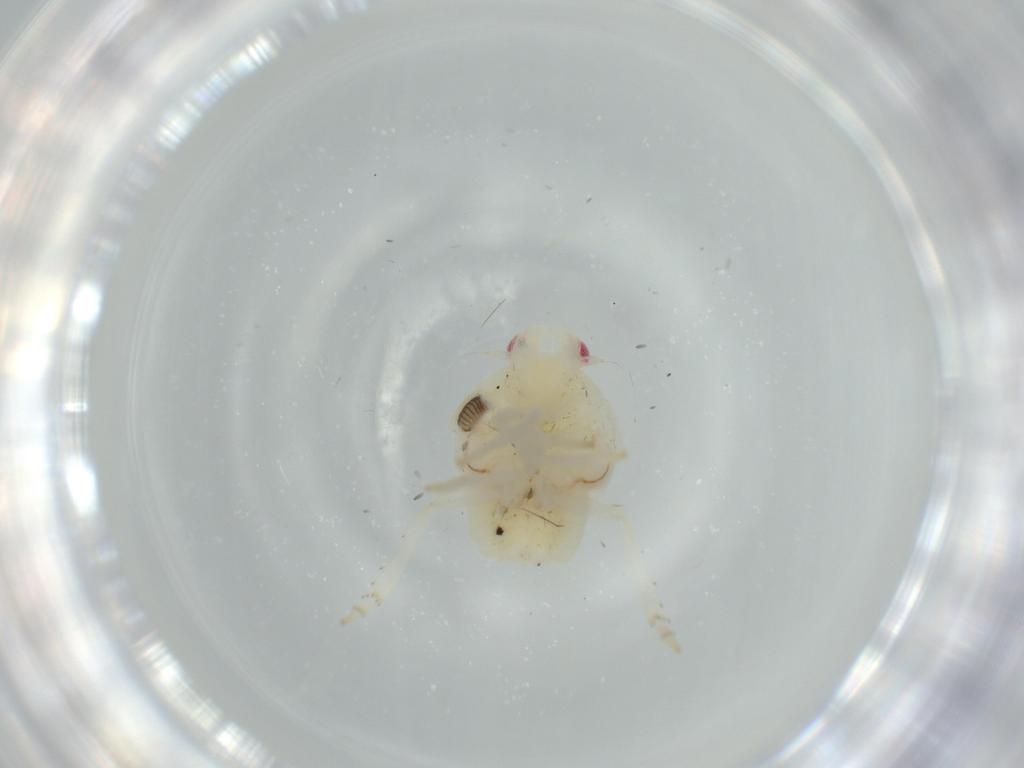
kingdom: Animalia
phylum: Arthropoda
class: Insecta
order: Hemiptera
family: Flatidae
